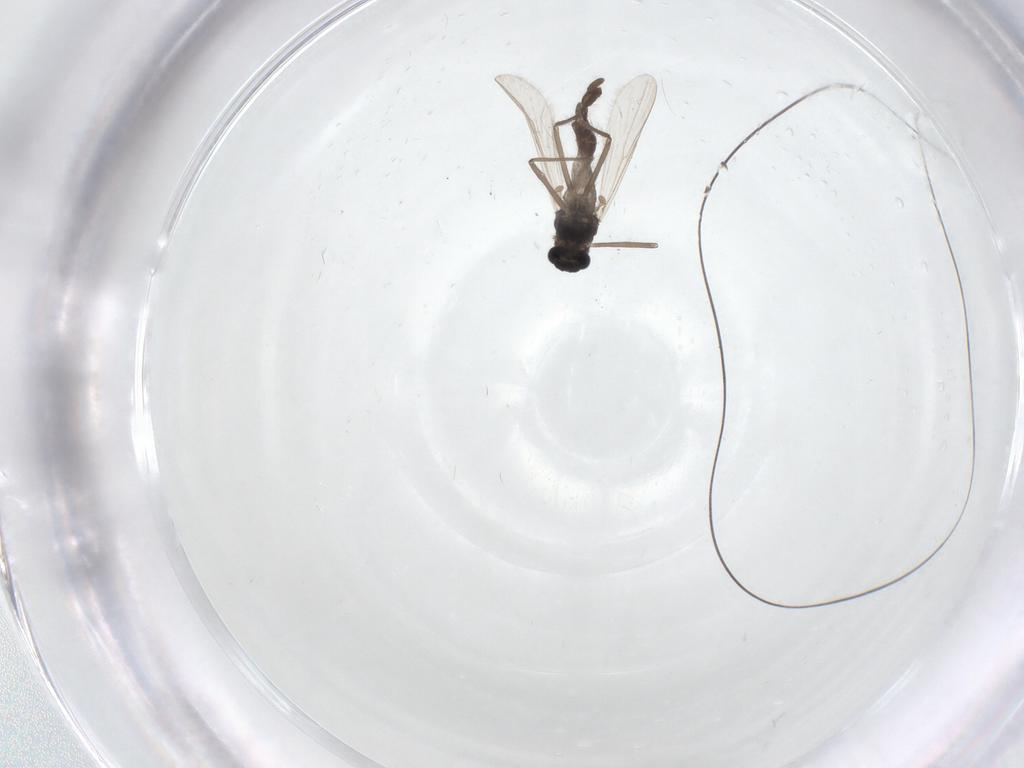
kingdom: Animalia
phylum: Arthropoda
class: Insecta
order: Diptera
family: Chironomidae
